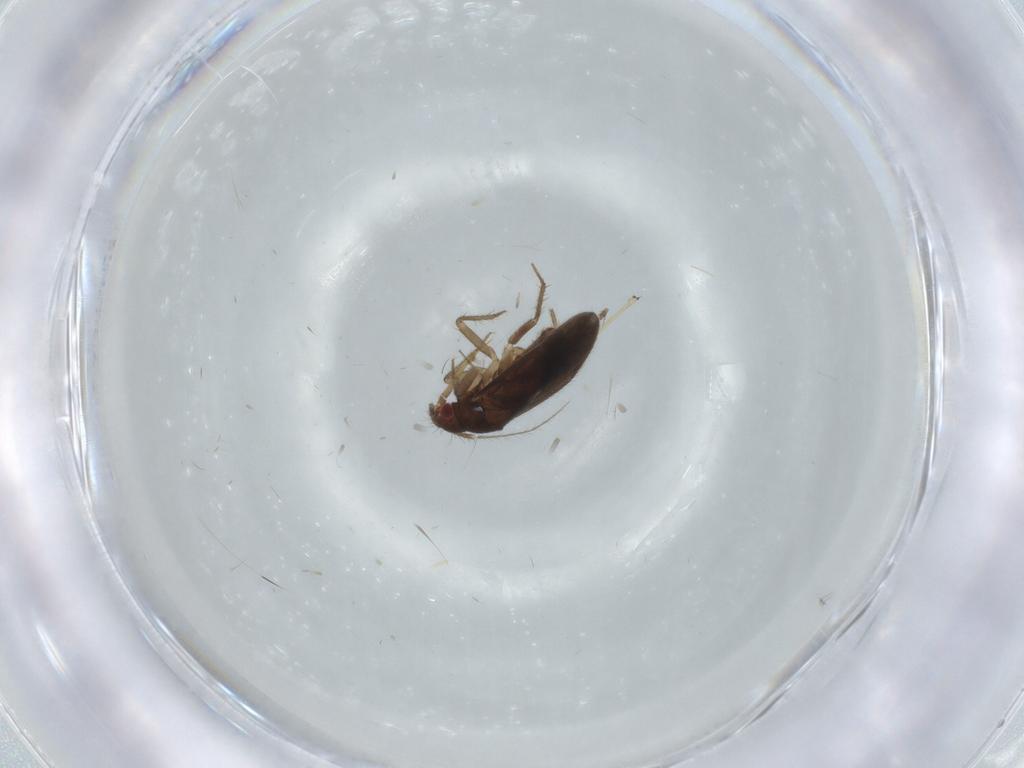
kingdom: Animalia
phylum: Arthropoda
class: Insecta
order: Hemiptera
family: Ceratocombidae
